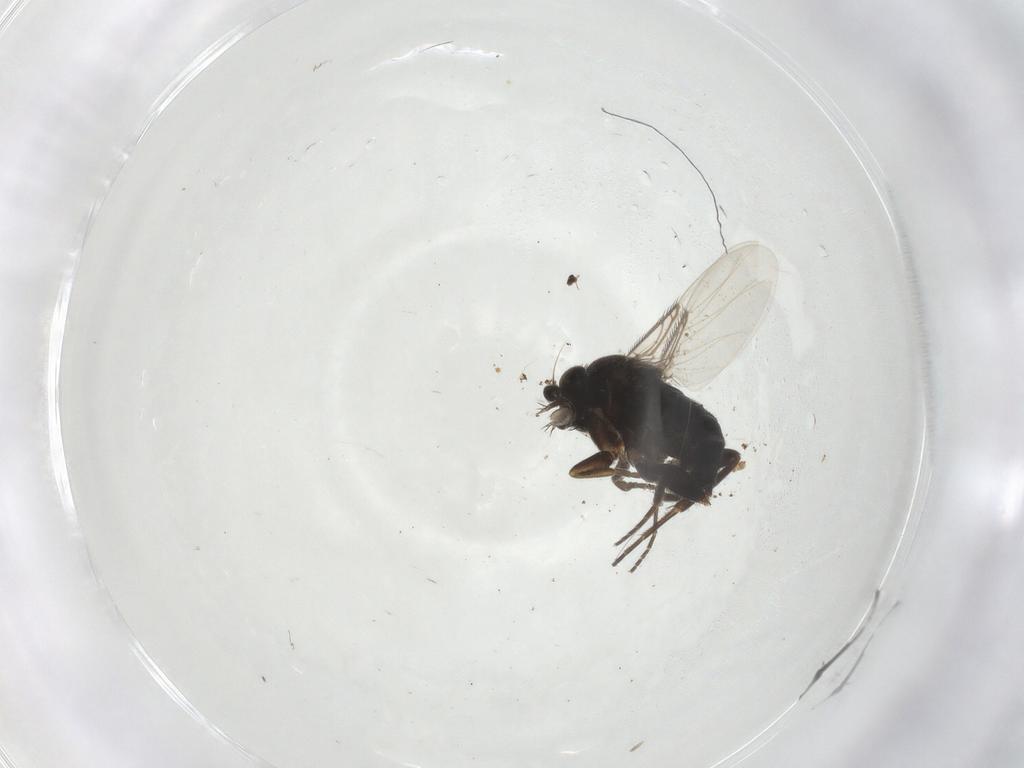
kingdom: Animalia
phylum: Arthropoda
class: Insecta
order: Diptera
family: Phoridae
